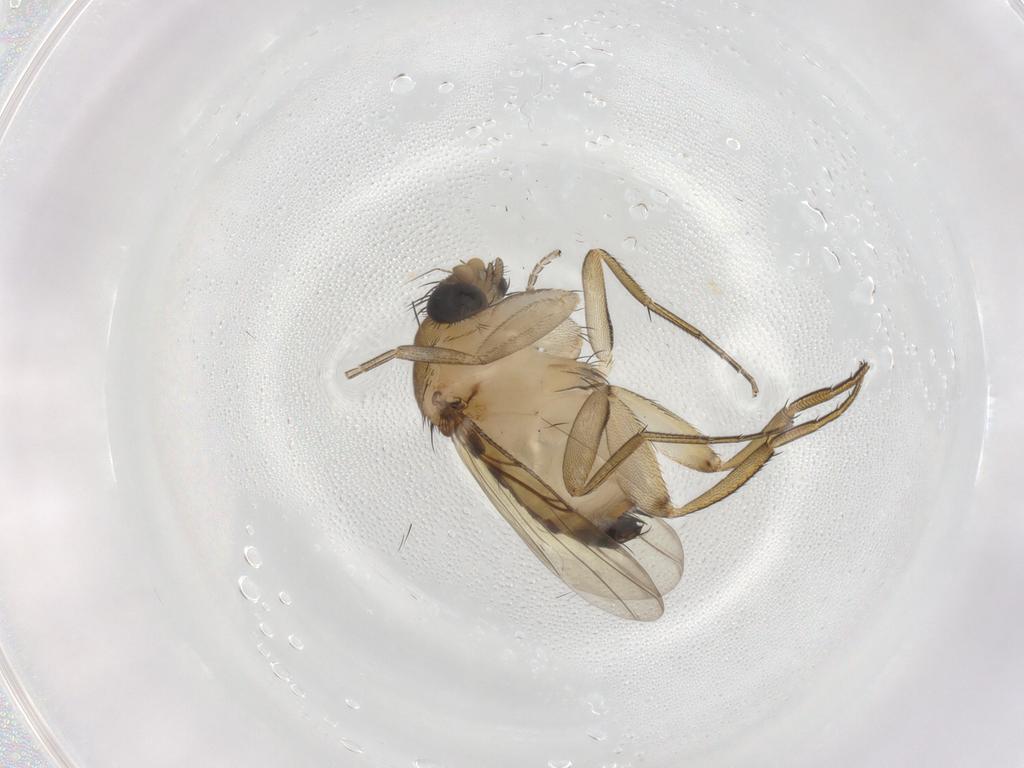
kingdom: Animalia
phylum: Arthropoda
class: Insecta
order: Diptera
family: Phoridae
